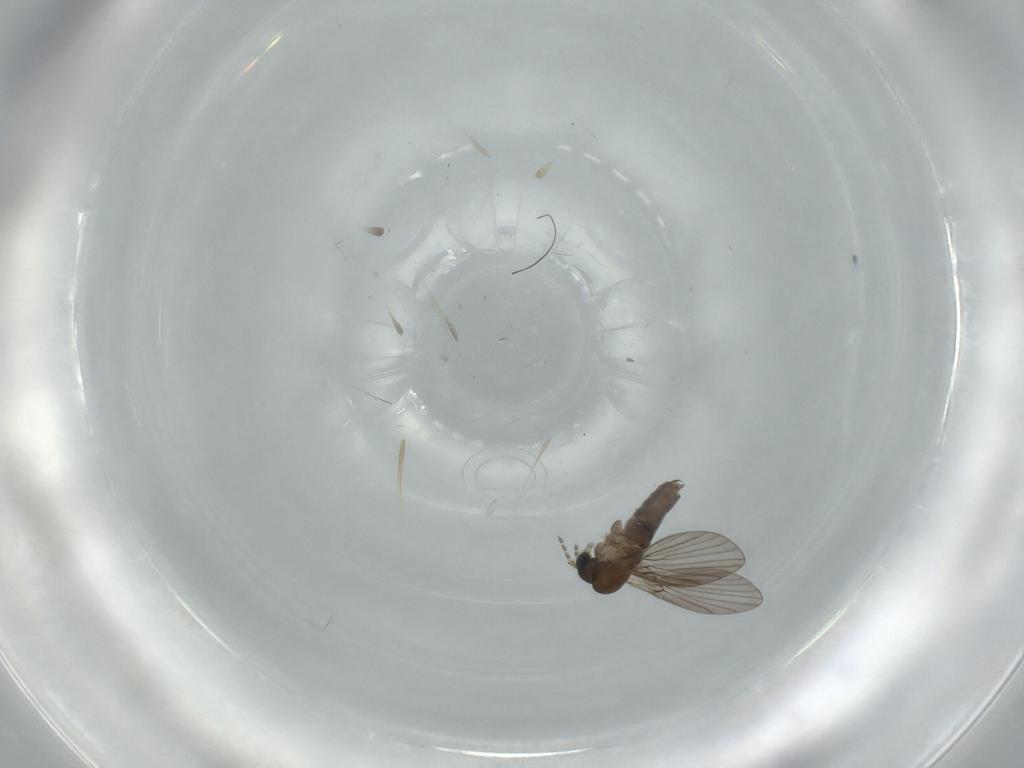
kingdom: Animalia
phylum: Arthropoda
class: Insecta
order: Diptera
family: Psychodidae
